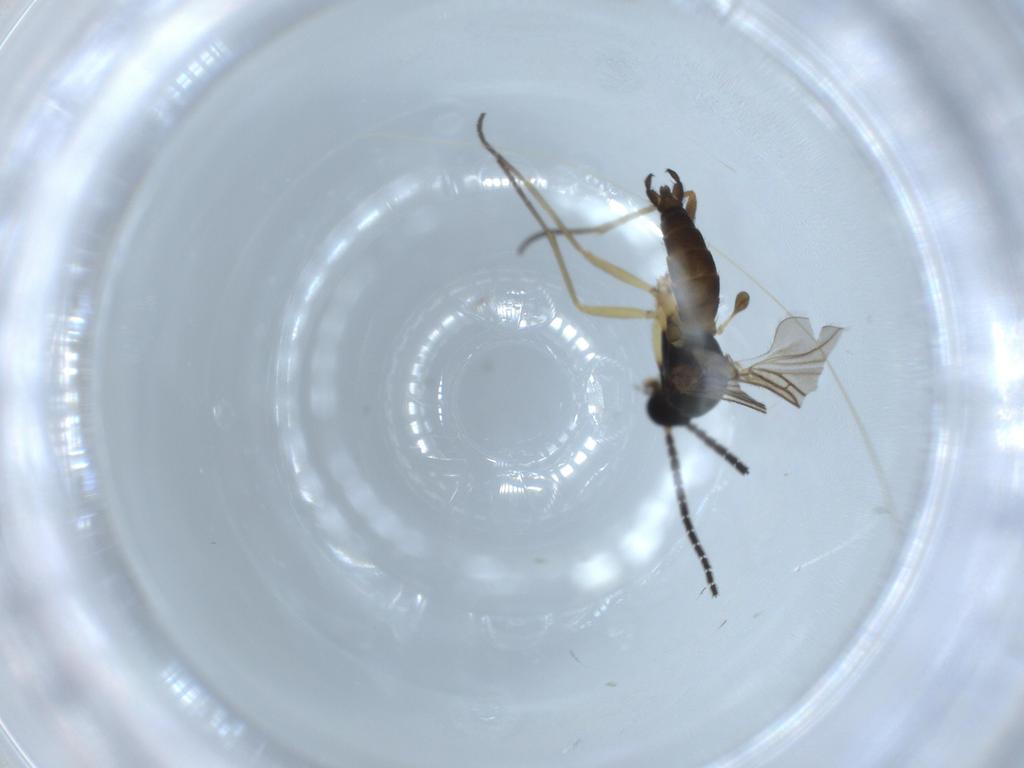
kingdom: Animalia
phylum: Arthropoda
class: Insecta
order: Diptera
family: Sciaridae
